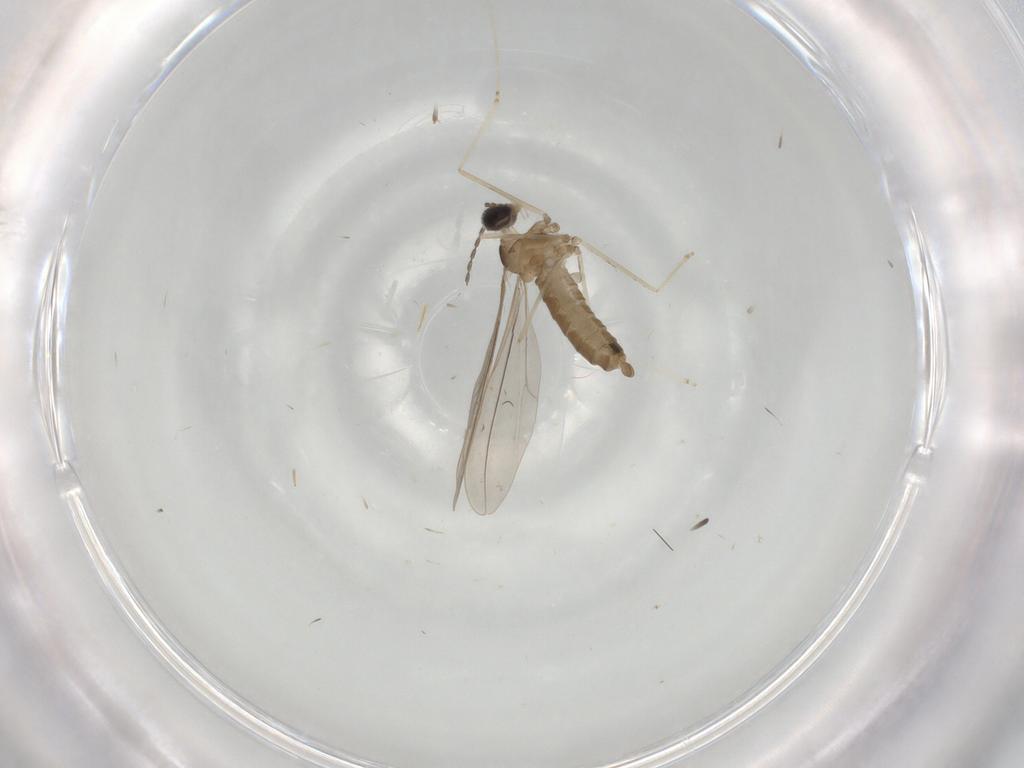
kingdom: Animalia
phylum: Arthropoda
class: Insecta
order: Diptera
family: Cecidomyiidae
